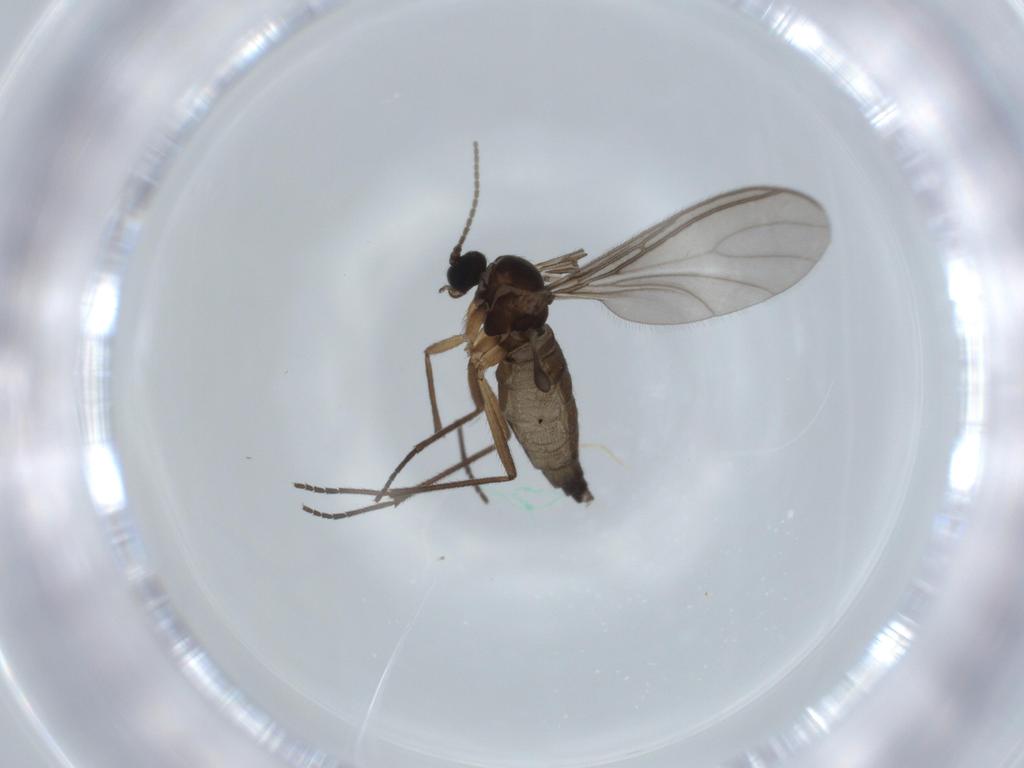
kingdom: Animalia
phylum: Arthropoda
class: Insecta
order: Diptera
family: Sciaridae
